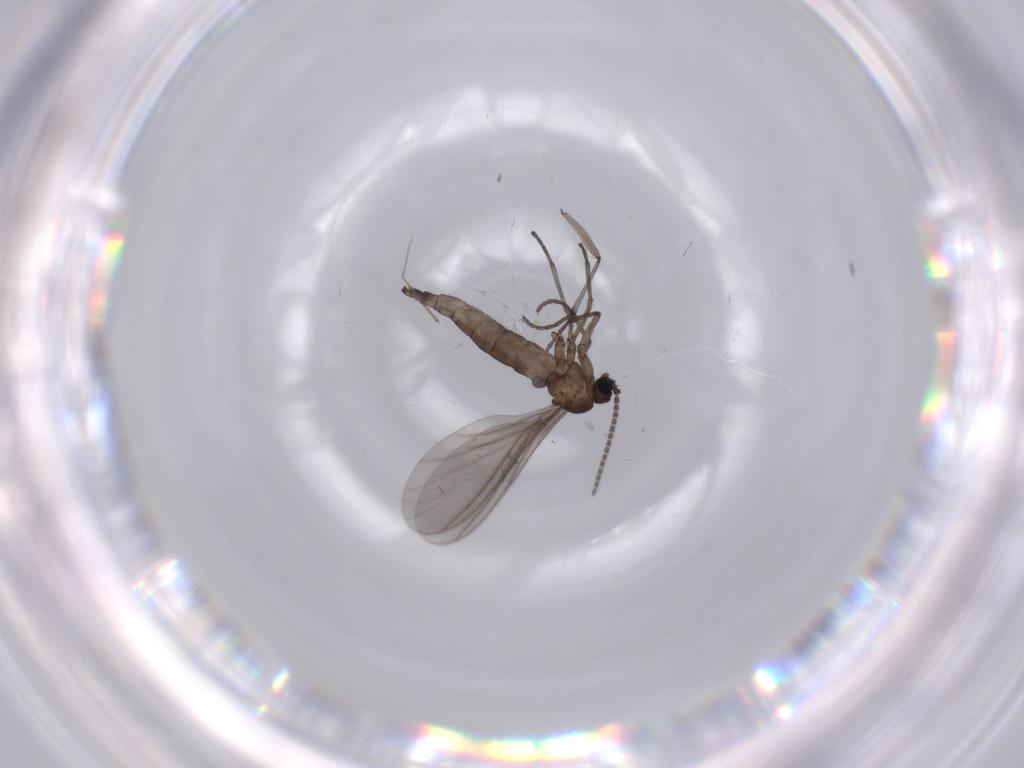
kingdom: Animalia
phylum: Arthropoda
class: Insecta
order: Diptera
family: Sciaridae
